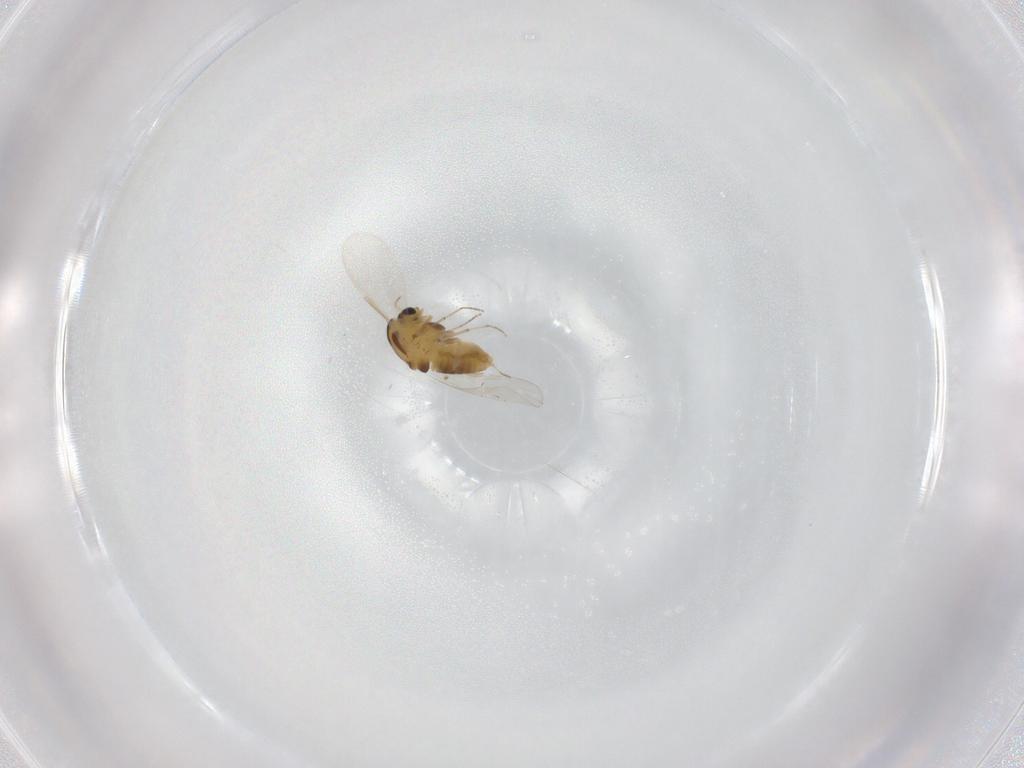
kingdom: Animalia
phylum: Arthropoda
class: Insecta
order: Diptera
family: Chironomidae
